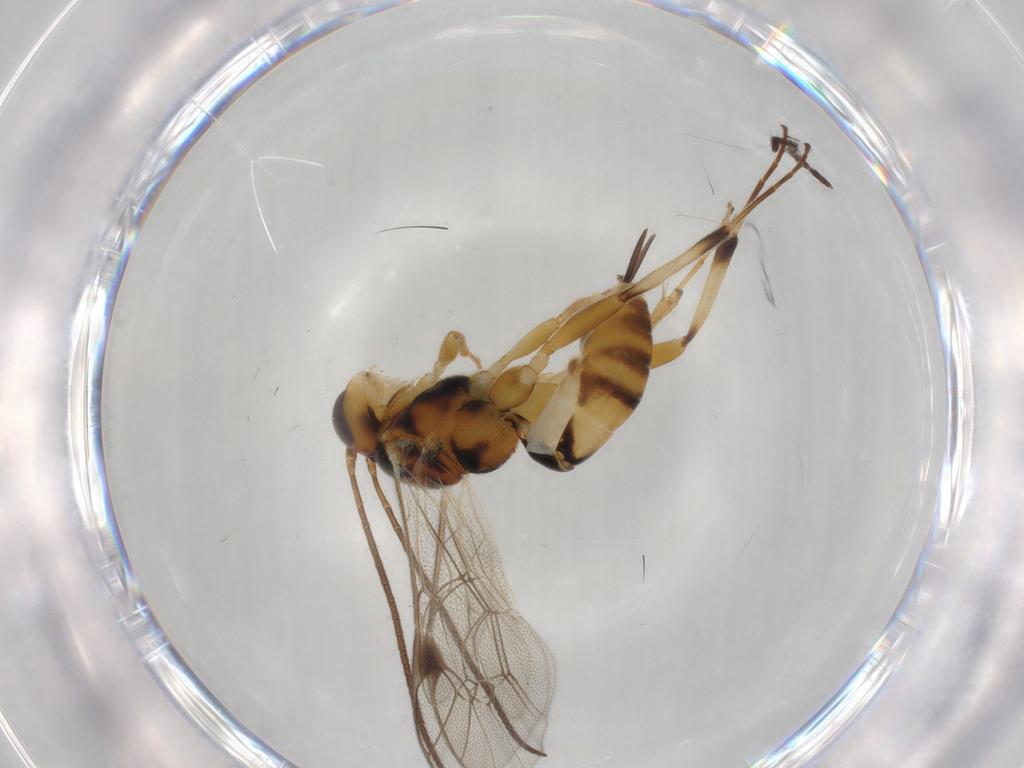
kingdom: Animalia
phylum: Arthropoda
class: Insecta
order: Hymenoptera
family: Ichneumonidae
